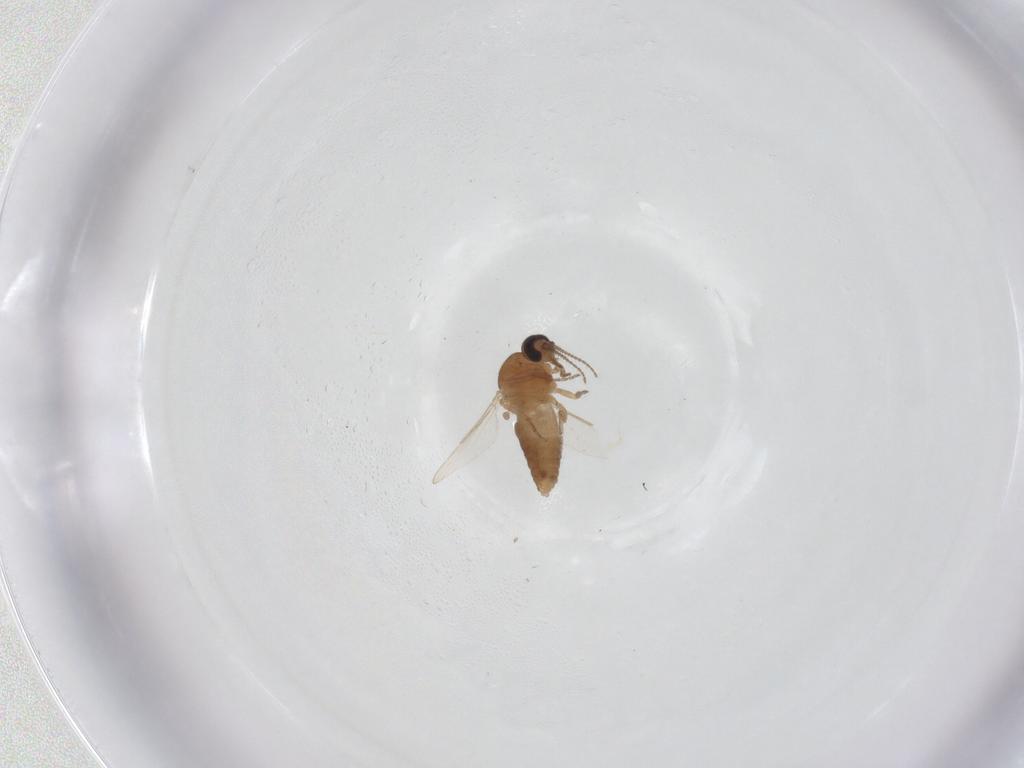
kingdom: Animalia
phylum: Arthropoda
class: Insecta
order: Diptera
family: Ceratopogonidae
